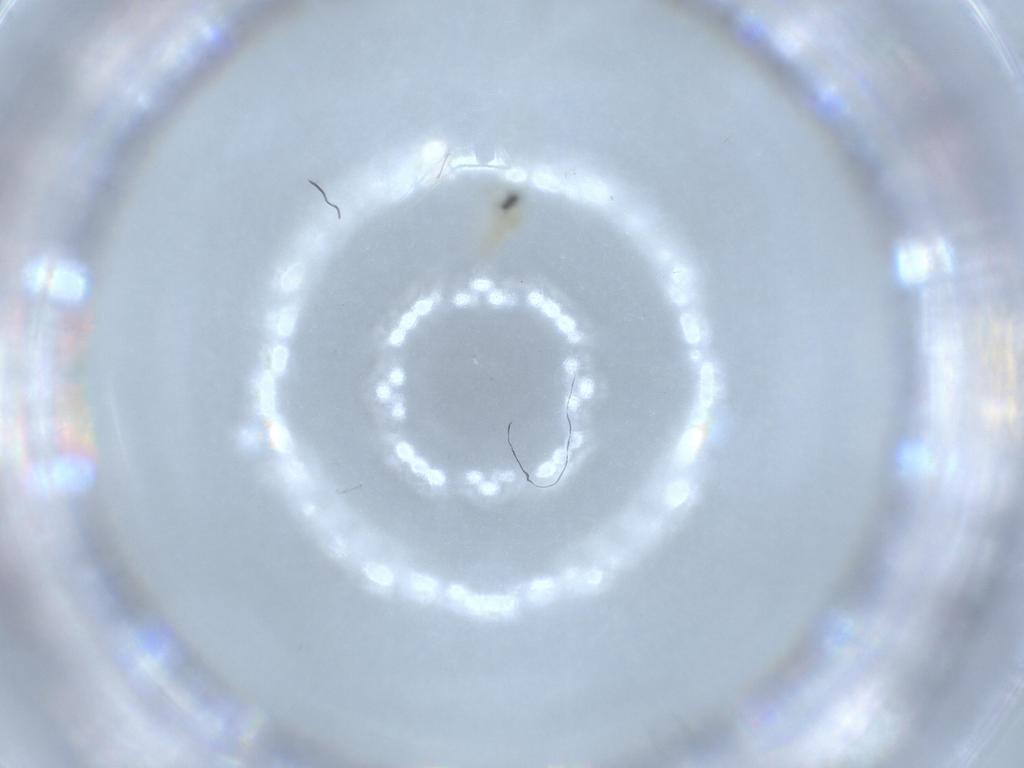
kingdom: Animalia
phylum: Arthropoda
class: Insecta
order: Diptera
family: Cecidomyiidae
